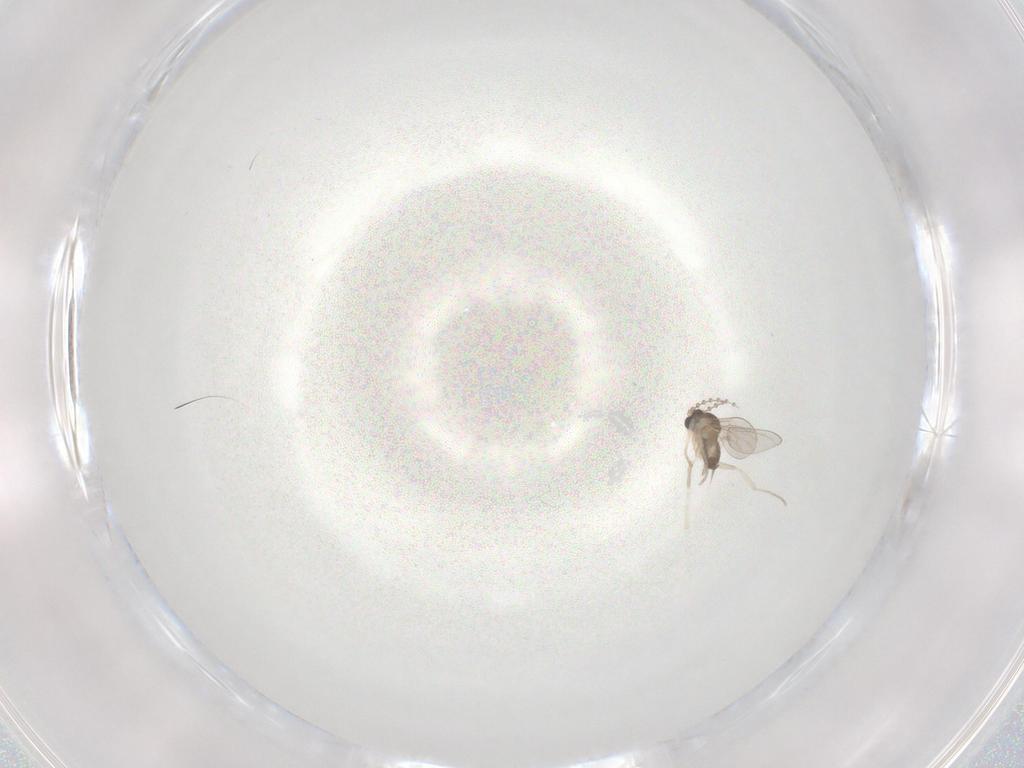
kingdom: Animalia
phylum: Arthropoda
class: Insecta
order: Diptera
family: Cecidomyiidae
